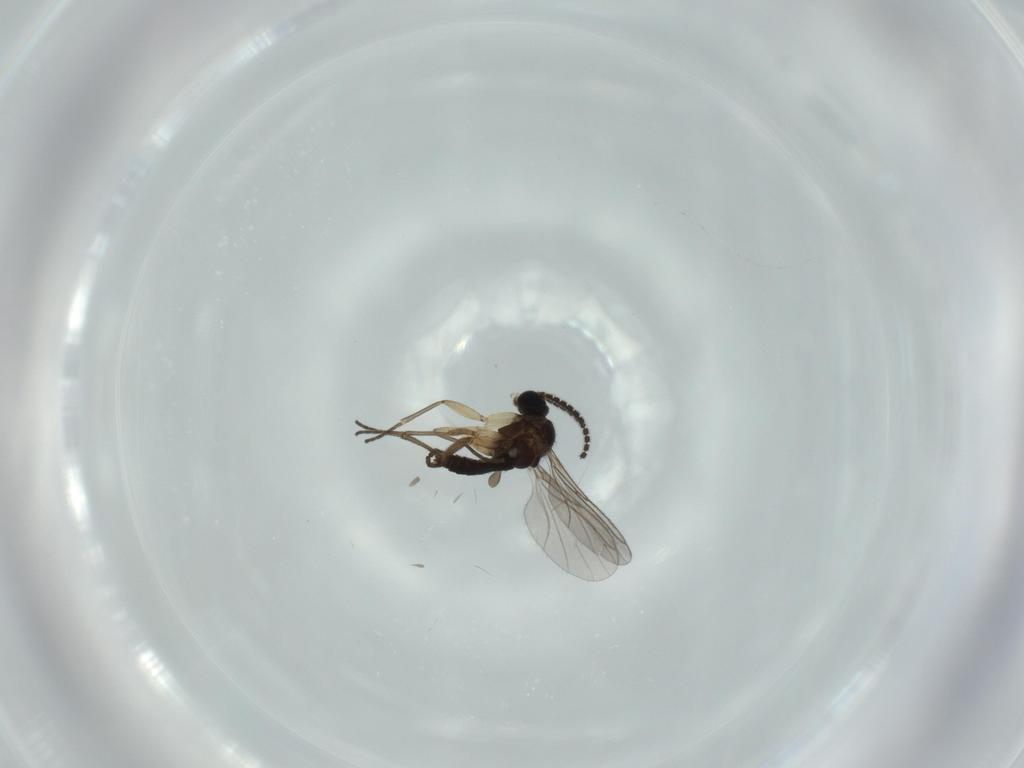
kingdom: Animalia
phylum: Arthropoda
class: Insecta
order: Diptera
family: Sciaridae
